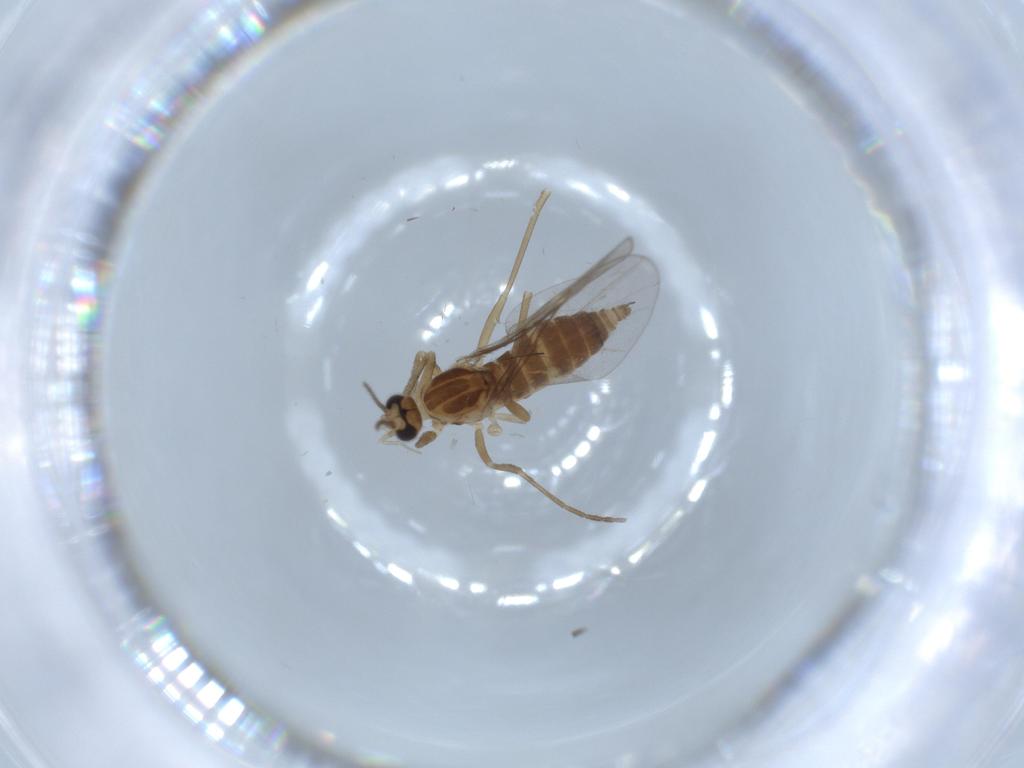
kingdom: Animalia
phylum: Arthropoda
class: Insecta
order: Diptera
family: Cecidomyiidae
